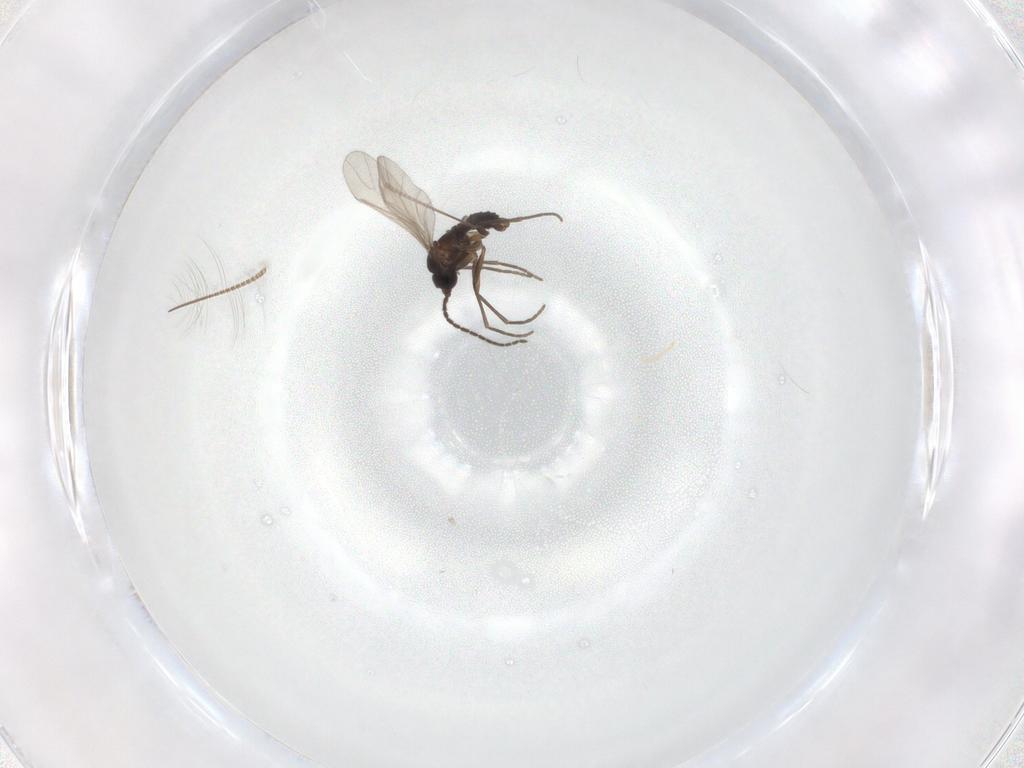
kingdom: Animalia
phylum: Arthropoda
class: Insecta
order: Diptera
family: Sciaridae
